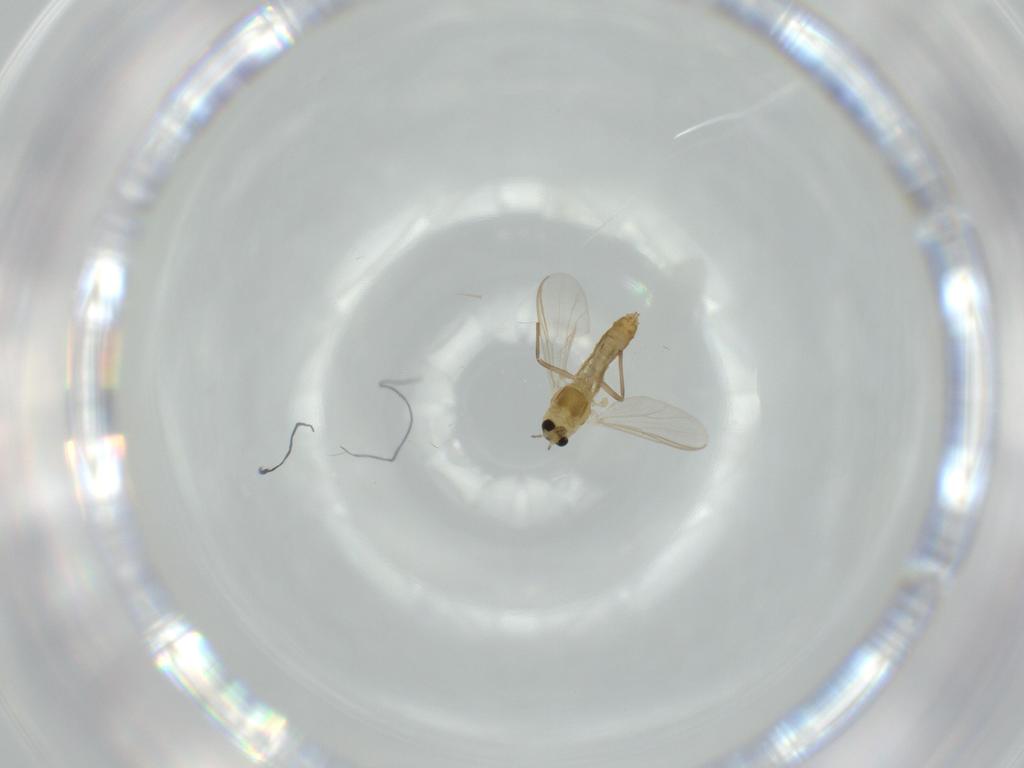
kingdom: Animalia
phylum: Arthropoda
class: Insecta
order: Diptera
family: Chironomidae
